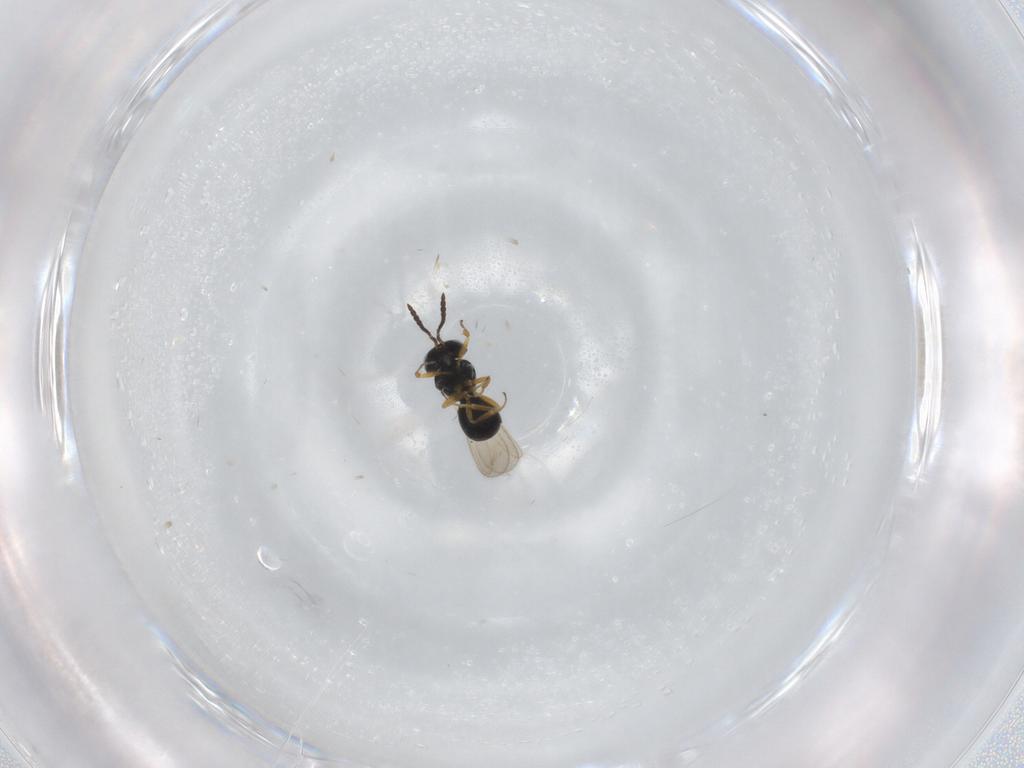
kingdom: Animalia
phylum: Arthropoda
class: Insecta
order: Hymenoptera
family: Scelionidae
